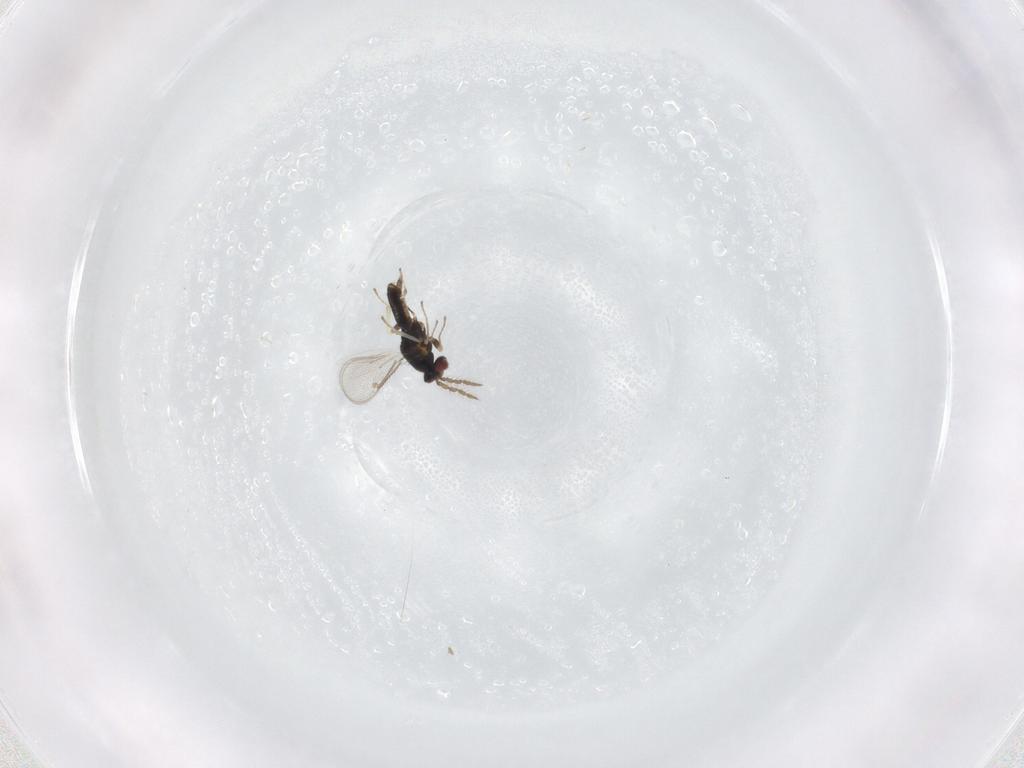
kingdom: Animalia
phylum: Arthropoda
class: Insecta
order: Hymenoptera
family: Eulophidae
